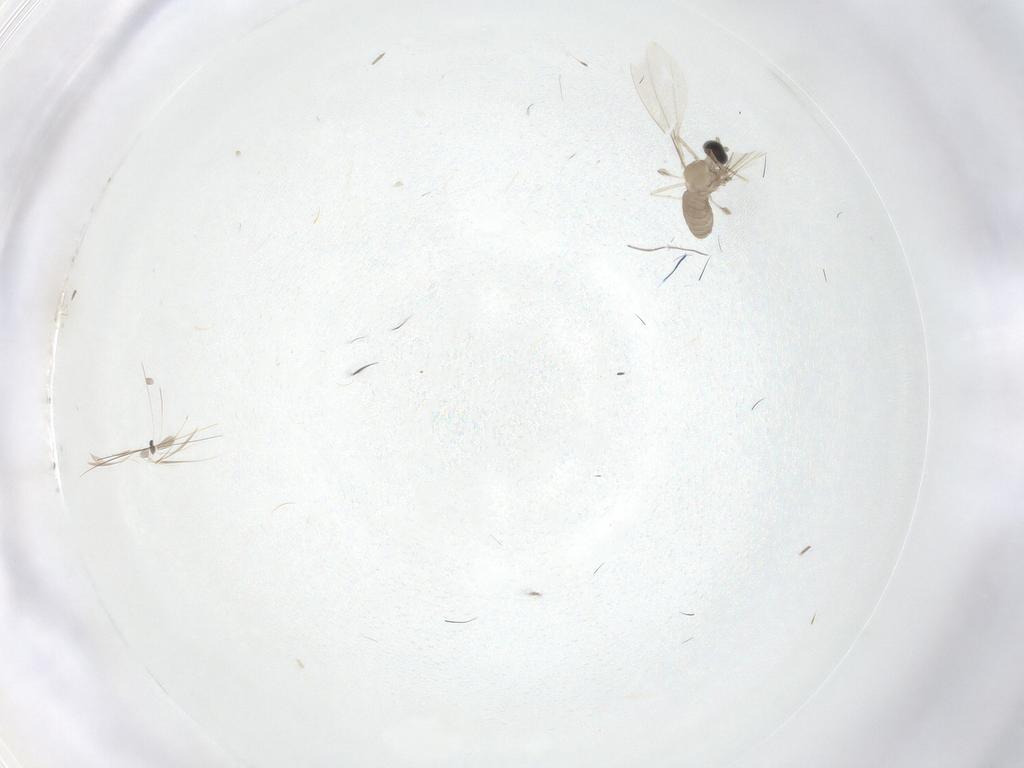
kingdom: Animalia
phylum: Arthropoda
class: Insecta
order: Diptera
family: Cecidomyiidae
